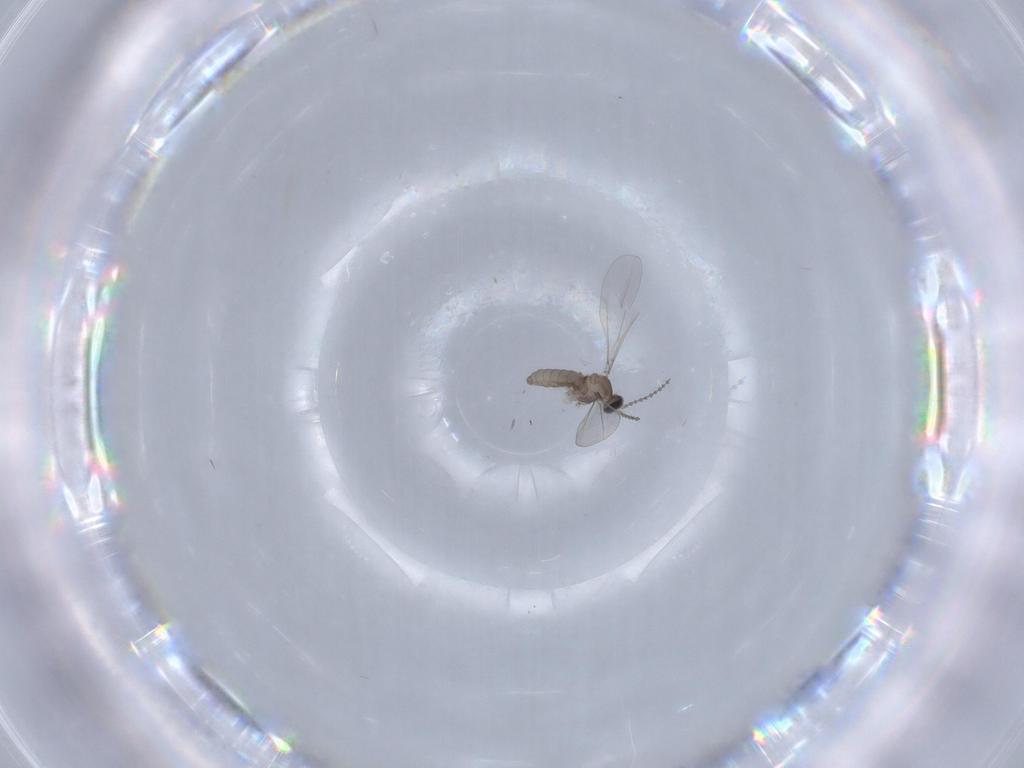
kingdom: Animalia
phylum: Arthropoda
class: Insecta
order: Diptera
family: Cecidomyiidae
